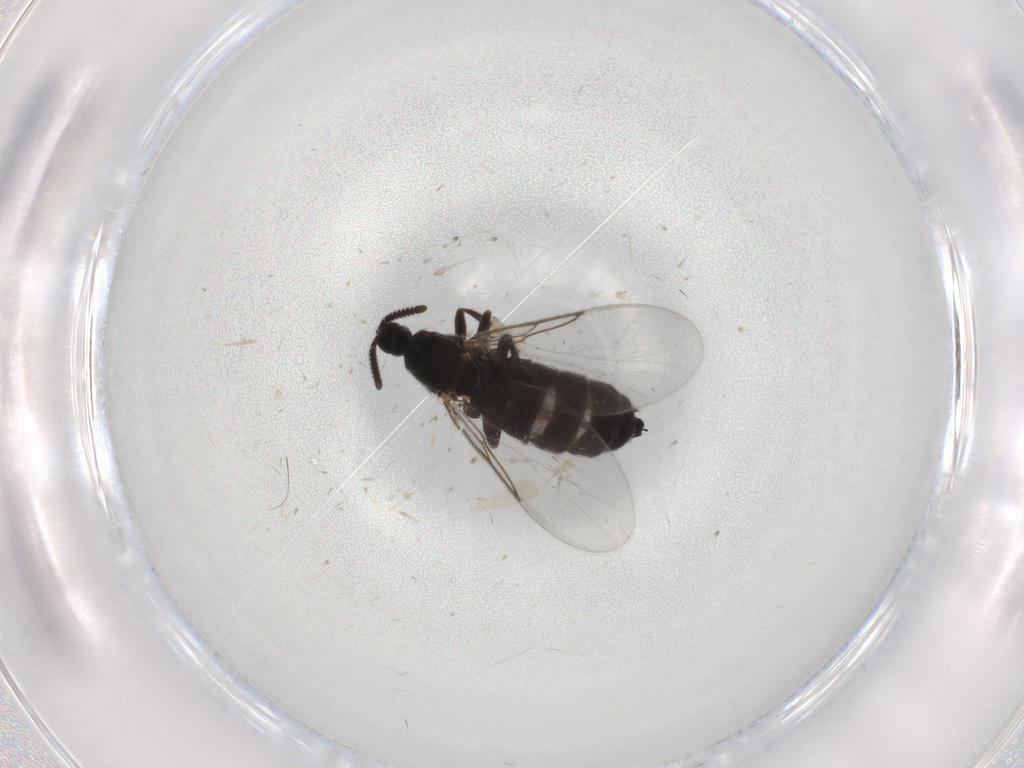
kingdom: Animalia
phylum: Arthropoda
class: Insecta
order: Diptera
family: Scatopsidae
